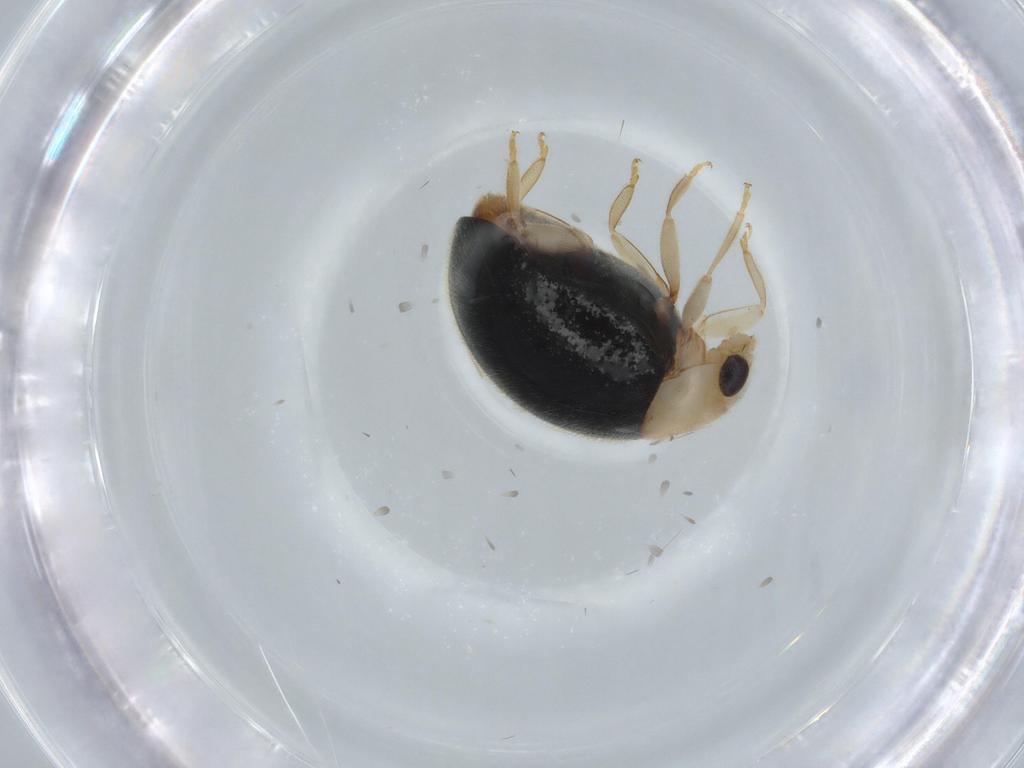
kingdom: Animalia
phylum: Arthropoda
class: Insecta
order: Coleoptera
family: Coccinellidae
